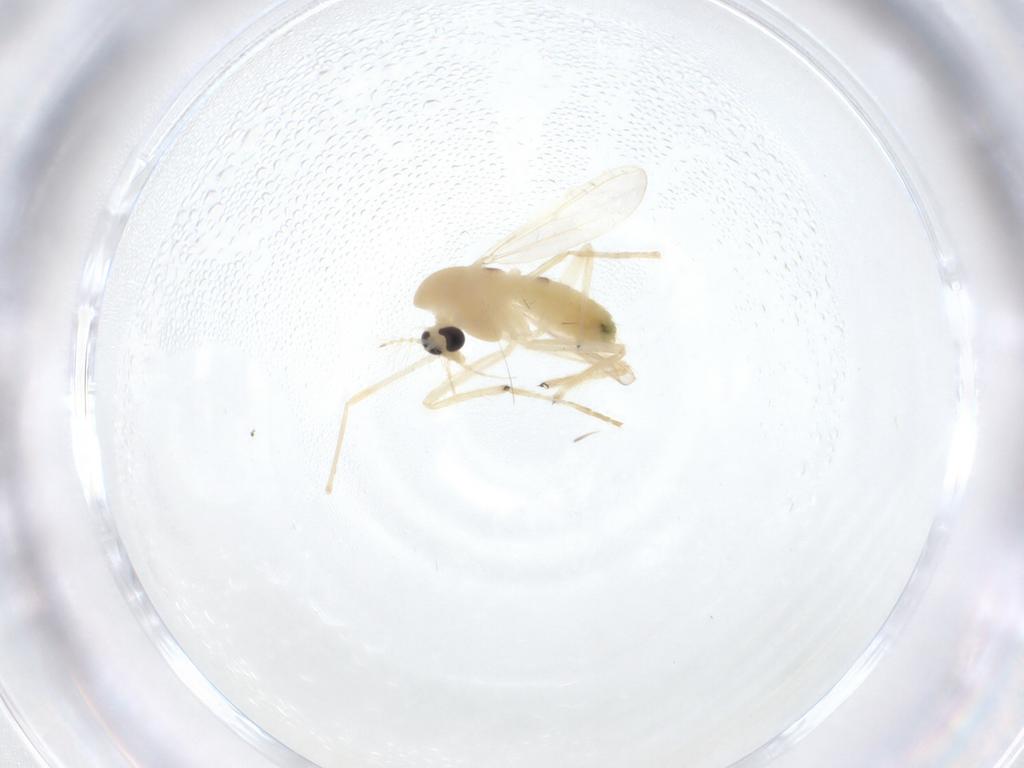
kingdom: Animalia
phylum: Arthropoda
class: Insecta
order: Diptera
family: Chironomidae
